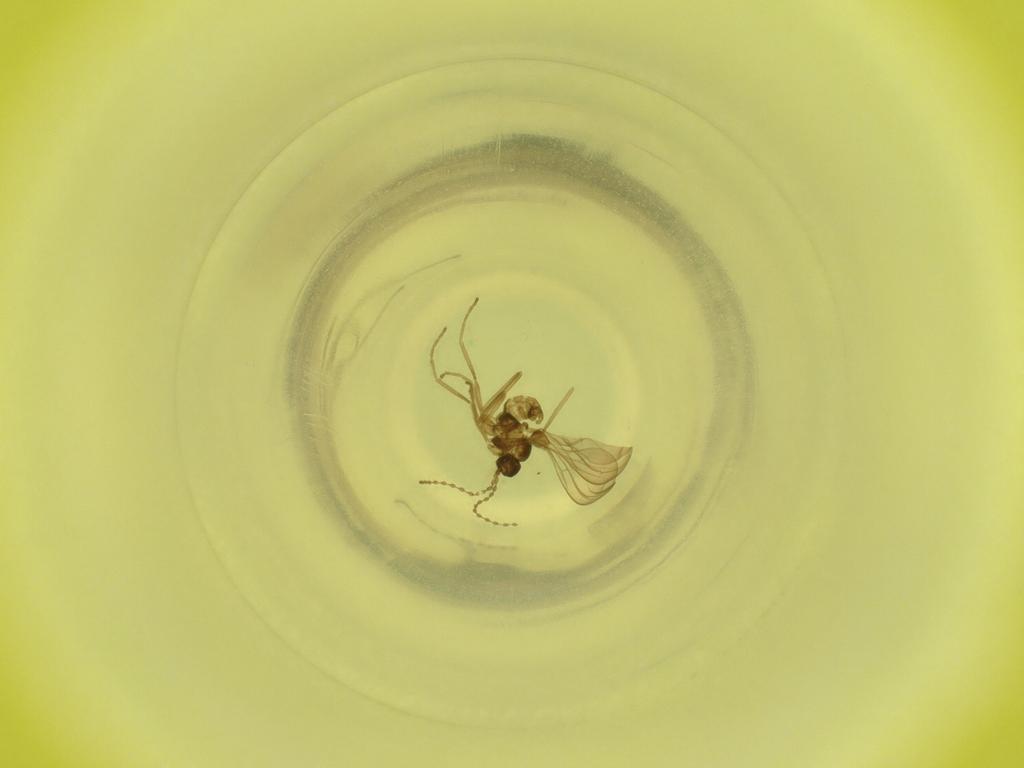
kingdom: Animalia
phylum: Arthropoda
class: Insecta
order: Diptera
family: Cecidomyiidae
